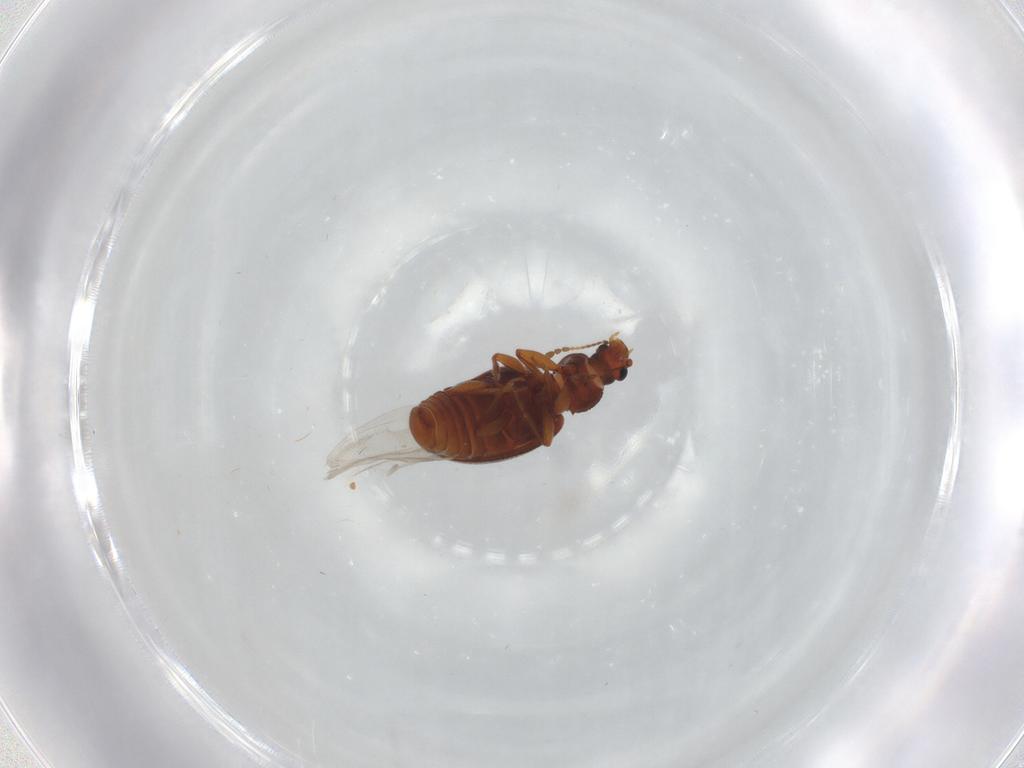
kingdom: Animalia
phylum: Arthropoda
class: Insecta
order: Coleoptera
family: Latridiidae
